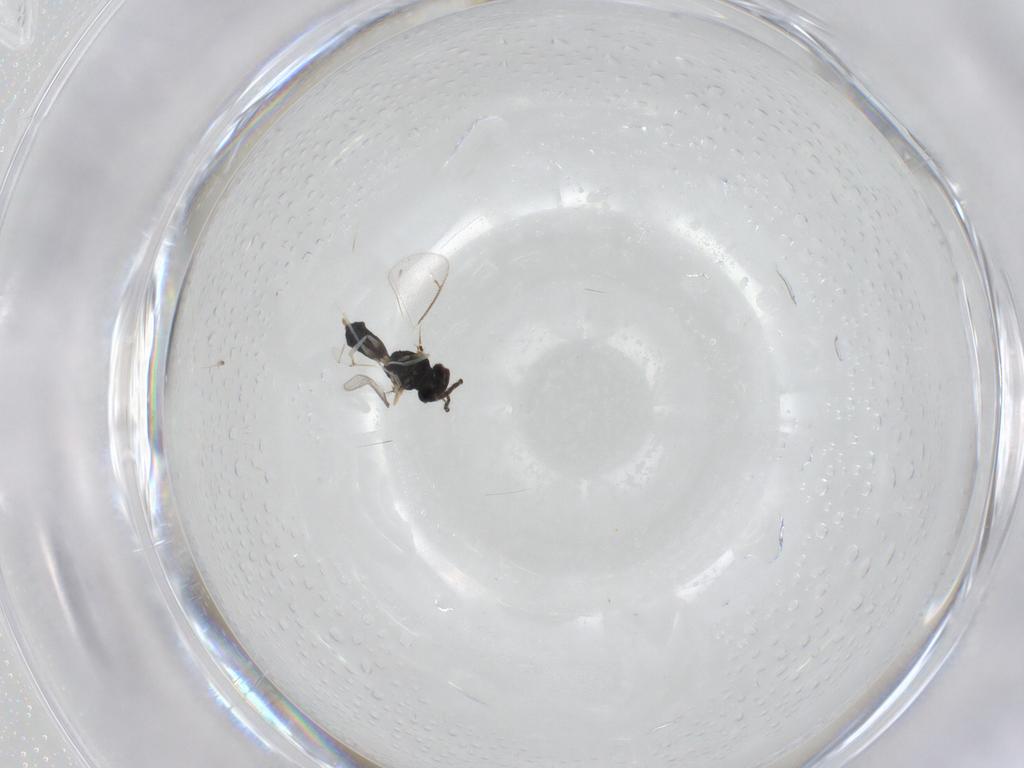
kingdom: Animalia
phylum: Arthropoda
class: Insecta
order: Hymenoptera
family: Eulophidae
